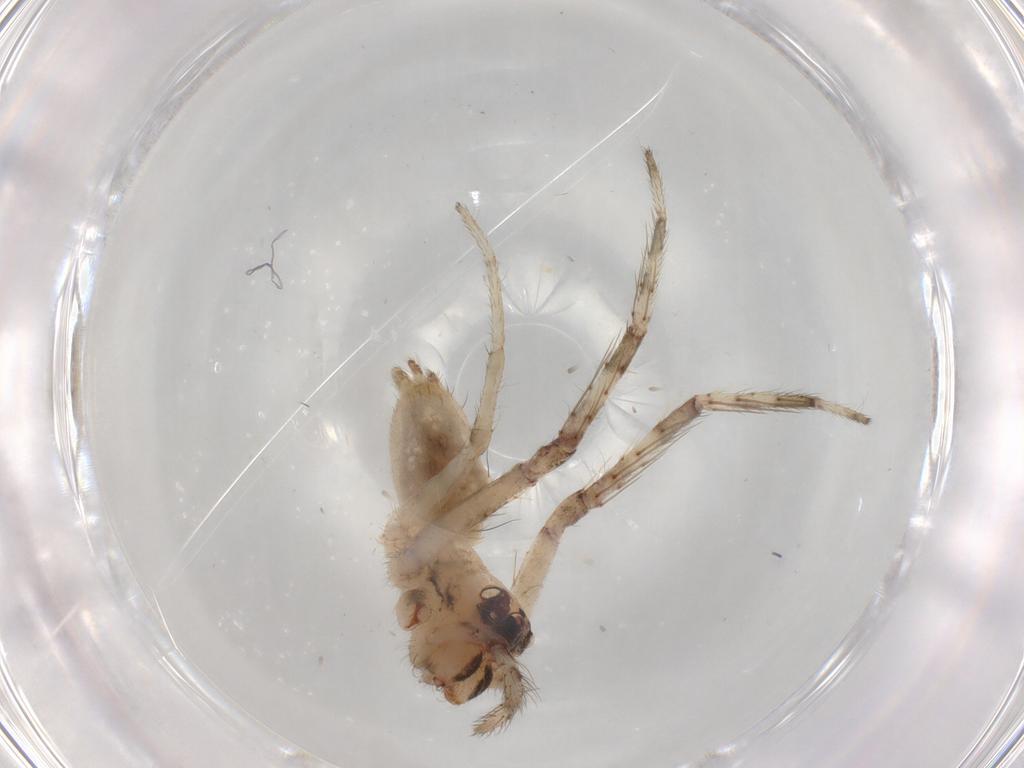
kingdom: Animalia
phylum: Arthropoda
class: Arachnida
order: Araneae
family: Senoculidae
